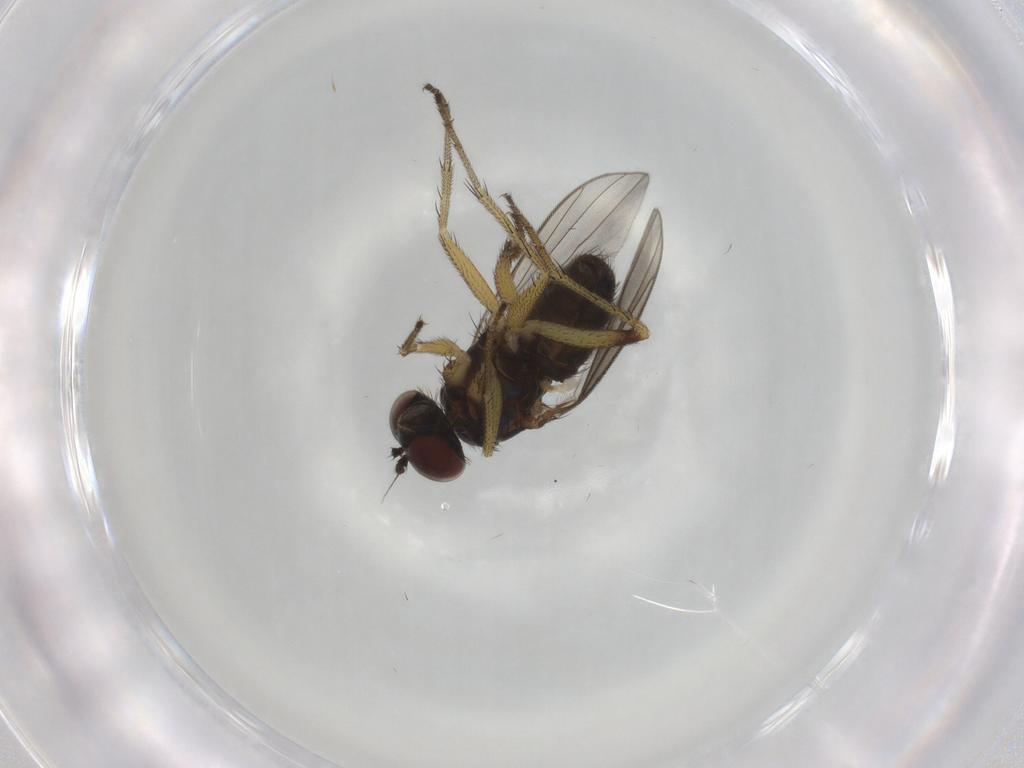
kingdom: Animalia
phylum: Arthropoda
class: Insecta
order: Diptera
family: Dolichopodidae
